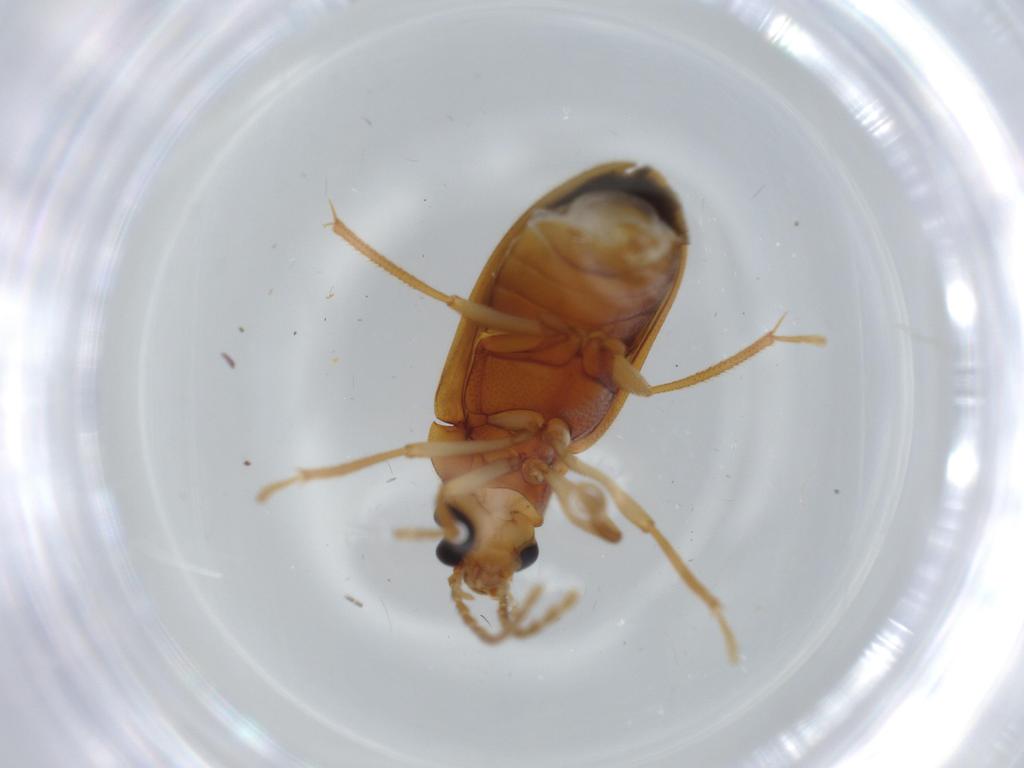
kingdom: Animalia
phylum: Arthropoda
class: Insecta
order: Coleoptera
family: Ptilodactylidae
